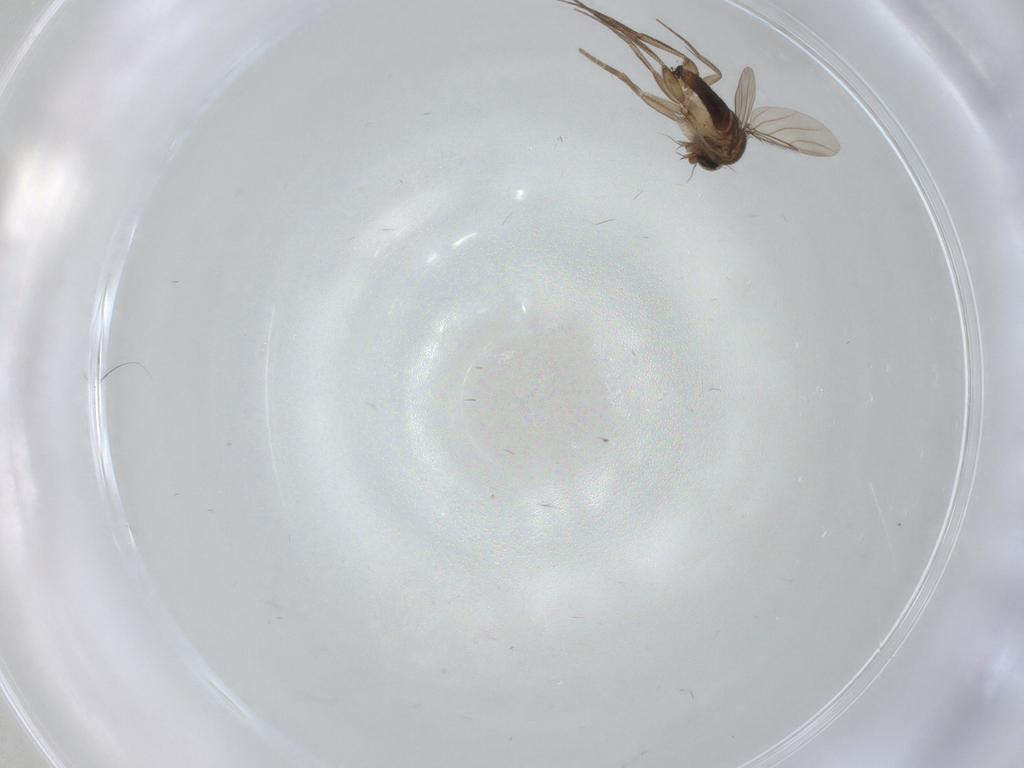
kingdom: Animalia
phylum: Arthropoda
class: Insecta
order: Diptera
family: Phoridae
